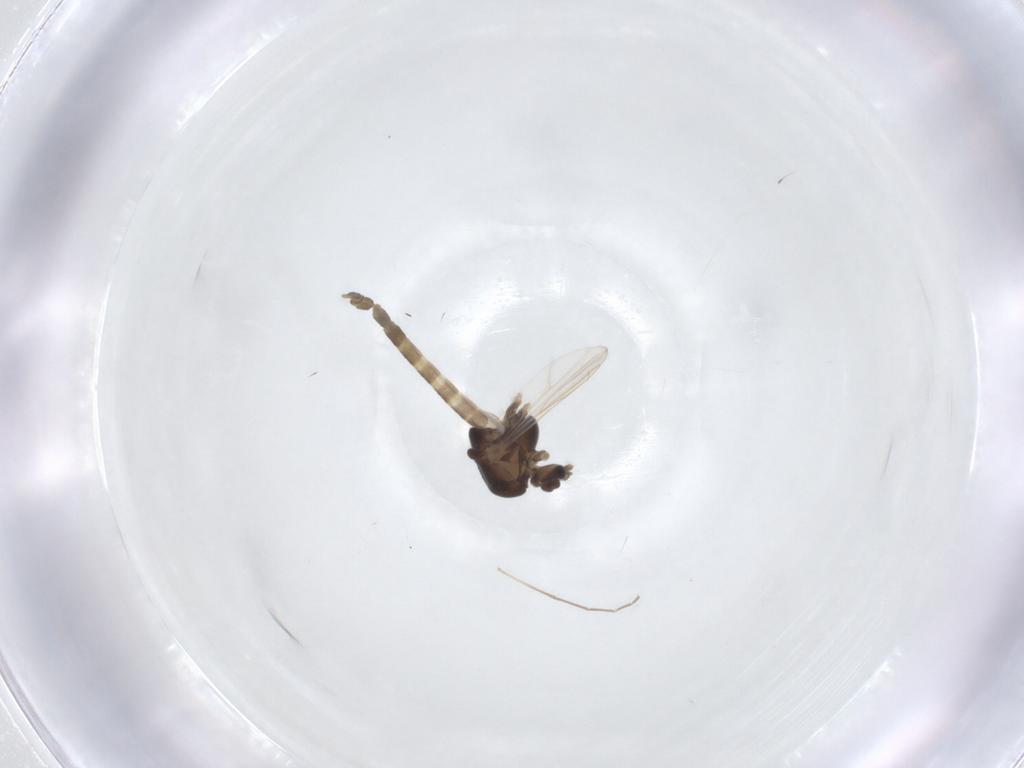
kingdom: Animalia
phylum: Arthropoda
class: Insecta
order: Diptera
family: Chironomidae
